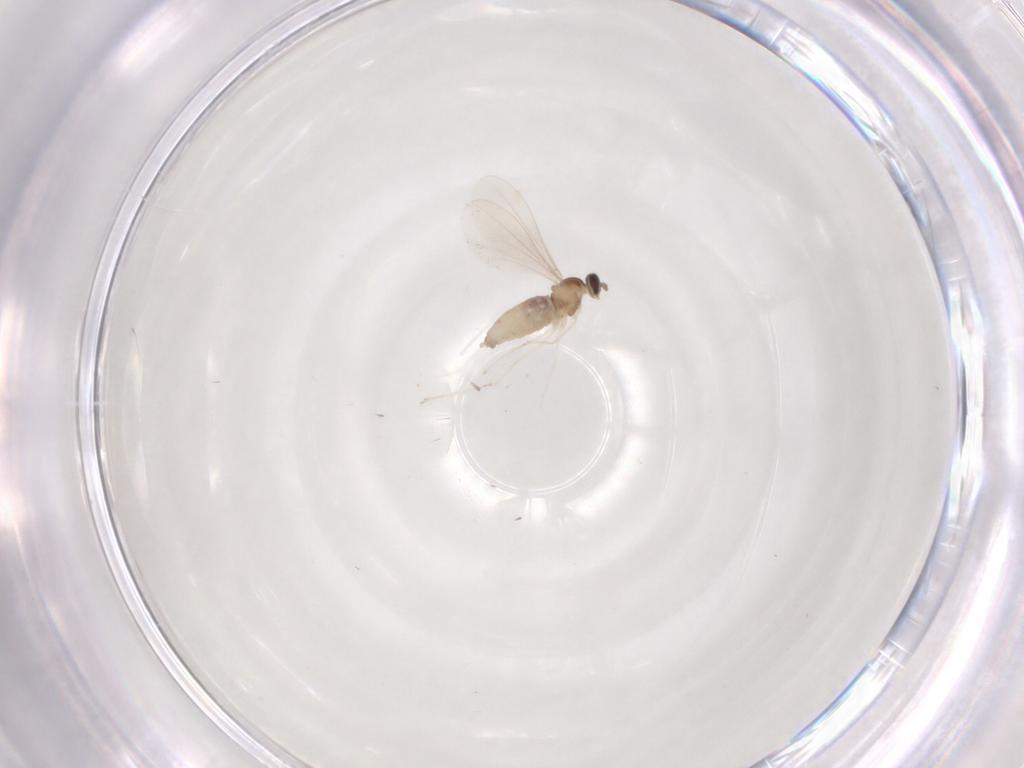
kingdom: Animalia
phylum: Arthropoda
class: Insecta
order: Diptera
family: Cecidomyiidae
